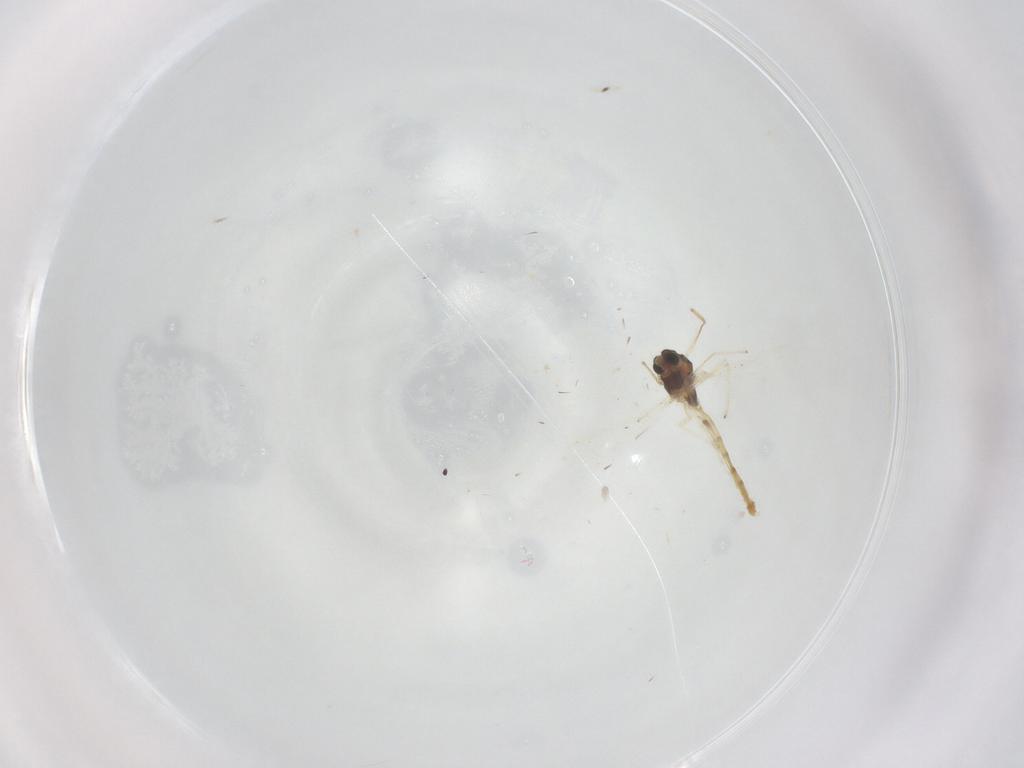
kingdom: Animalia
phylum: Arthropoda
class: Insecta
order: Diptera
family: Chironomidae
